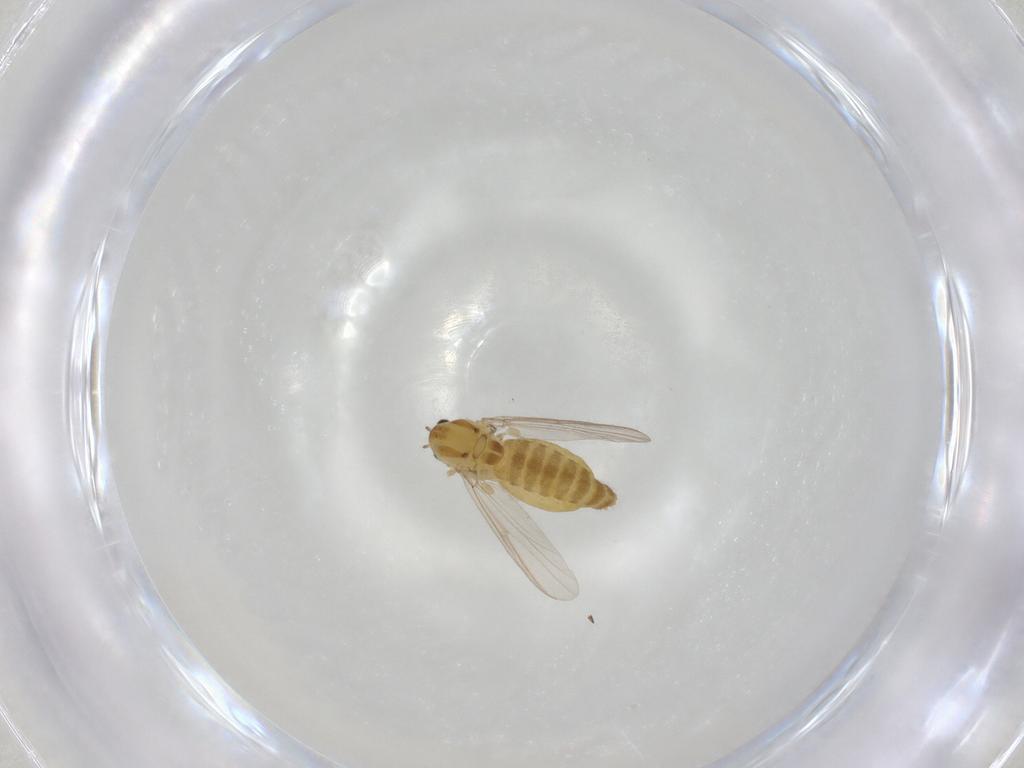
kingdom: Animalia
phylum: Arthropoda
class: Insecta
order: Diptera
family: Chironomidae
